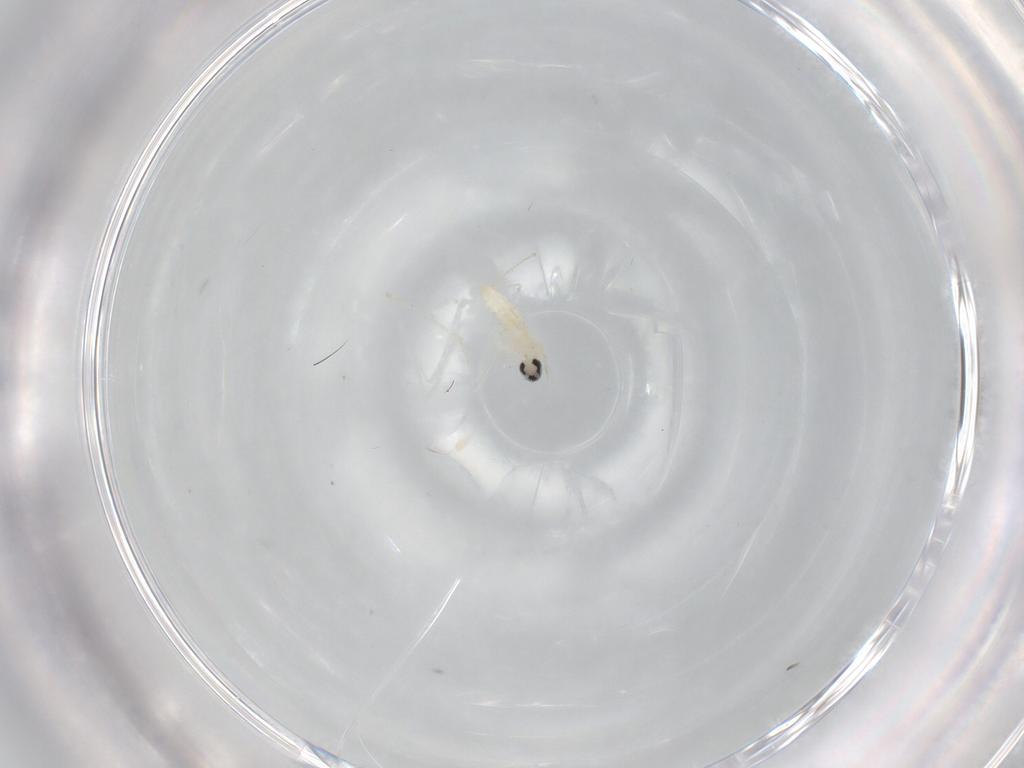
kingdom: Animalia
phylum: Arthropoda
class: Insecta
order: Diptera
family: Cecidomyiidae
